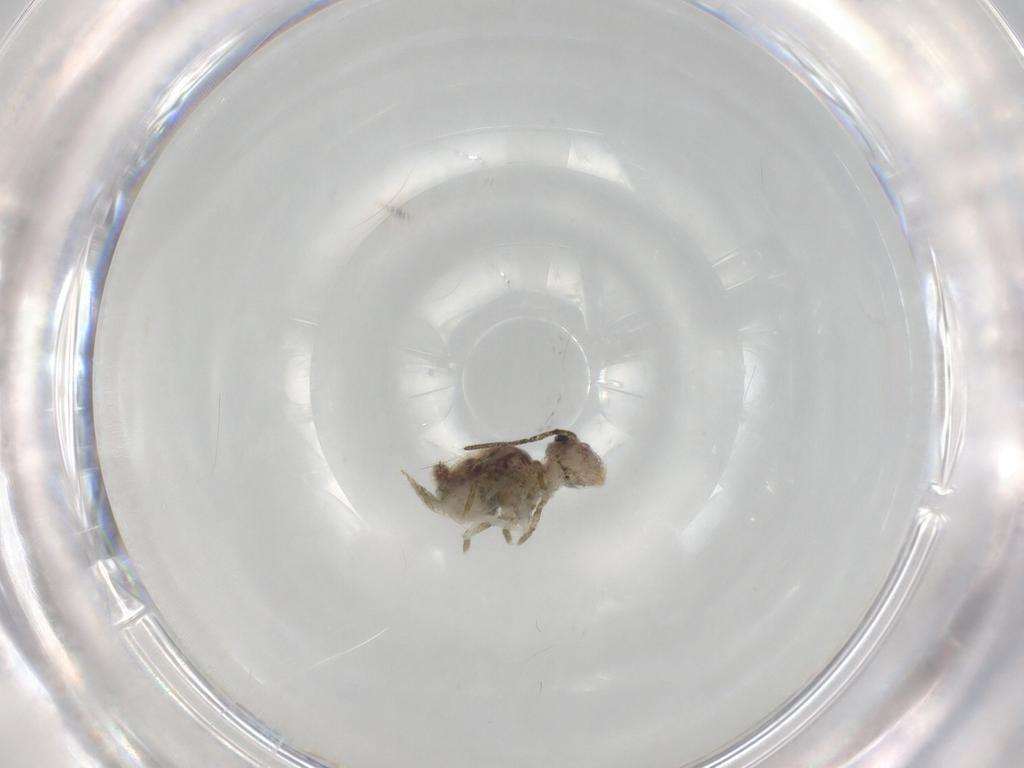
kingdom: Animalia
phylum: Arthropoda
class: Collembola
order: Symphypleona
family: Sminthuridae
